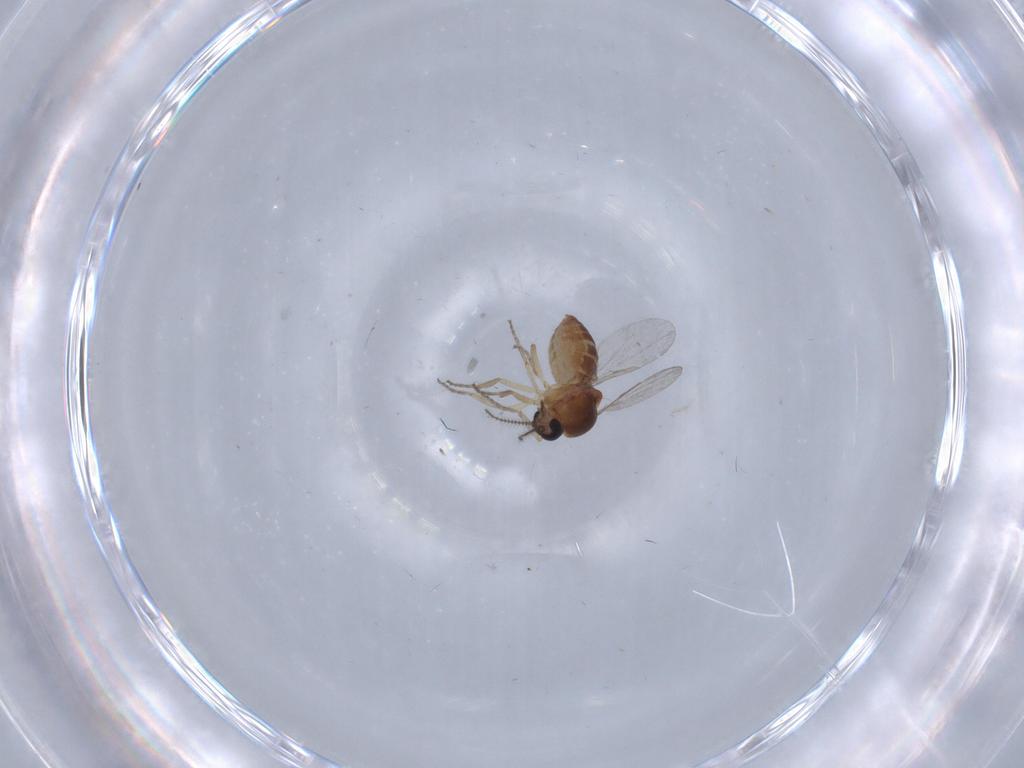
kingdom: Animalia
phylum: Arthropoda
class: Insecta
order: Diptera
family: Ceratopogonidae
